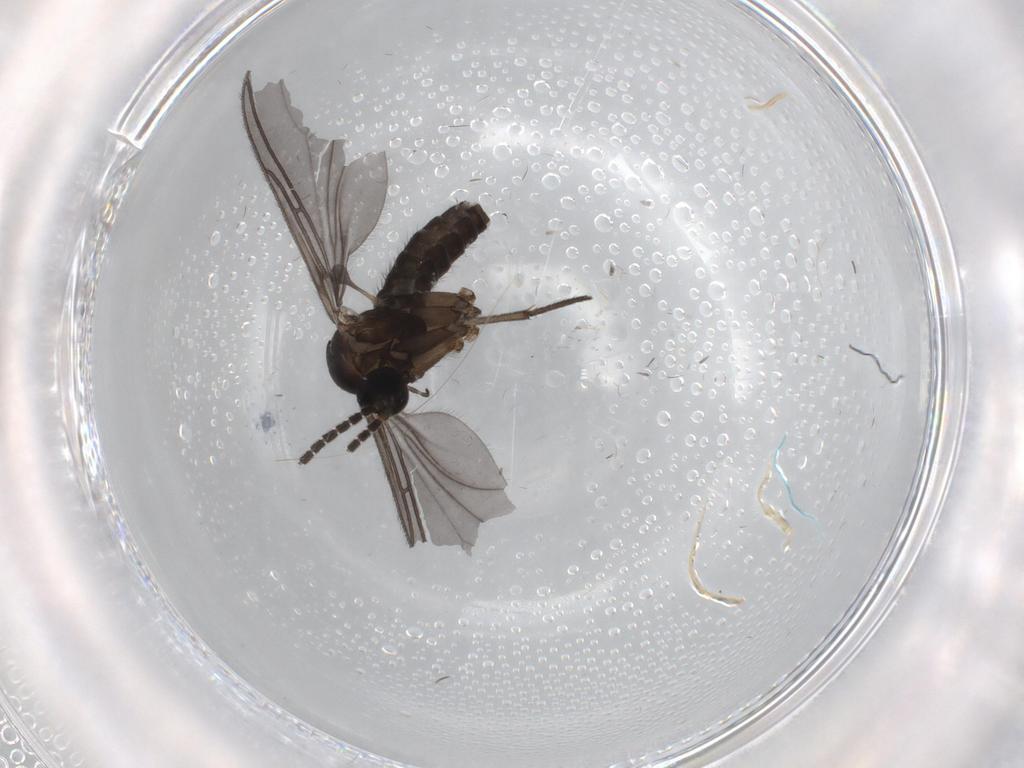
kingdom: Animalia
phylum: Arthropoda
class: Insecta
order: Diptera
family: Sciaridae
